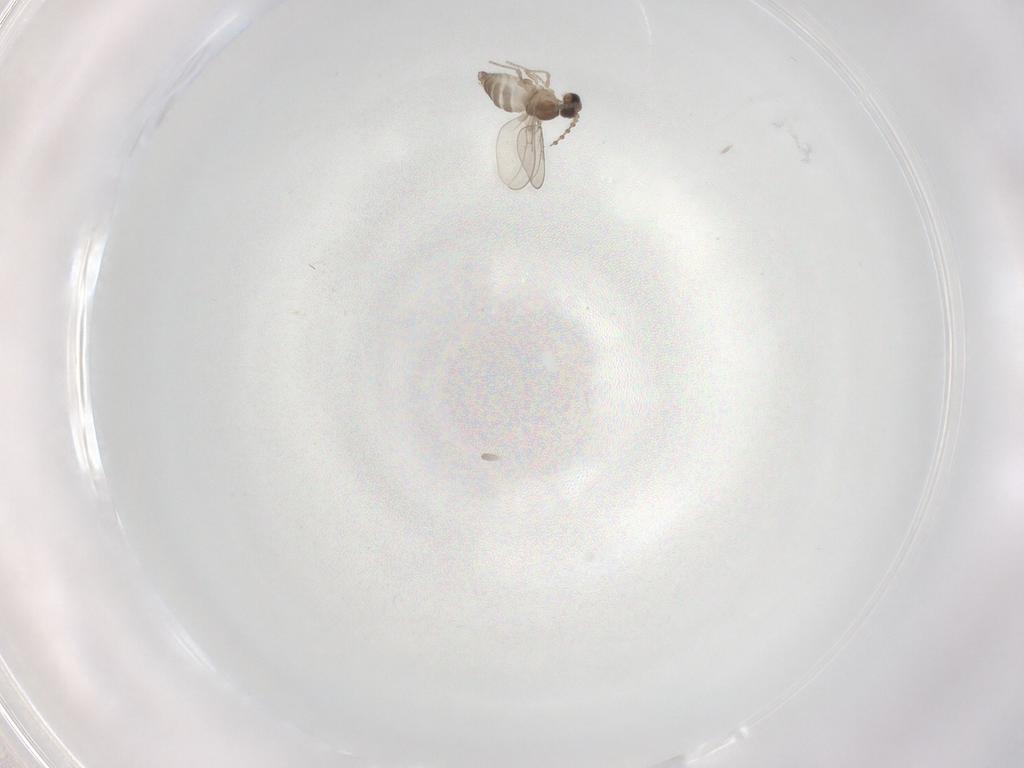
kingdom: Animalia
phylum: Arthropoda
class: Insecta
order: Diptera
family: Cecidomyiidae
